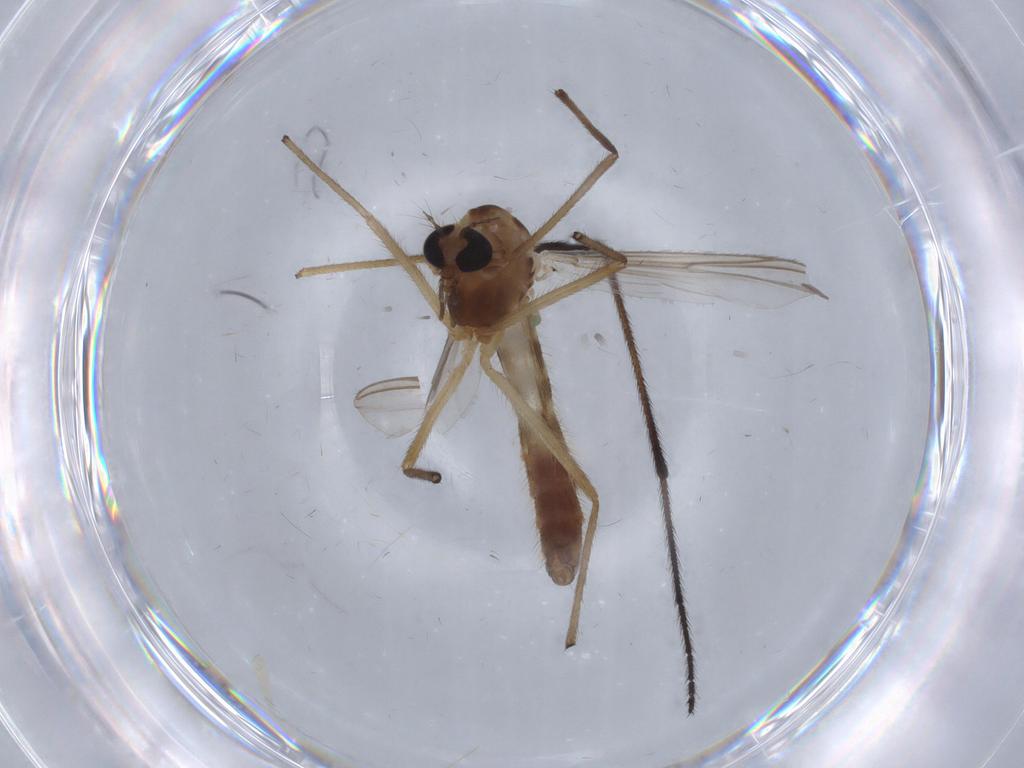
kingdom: Animalia
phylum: Arthropoda
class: Insecta
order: Diptera
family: Chironomidae
